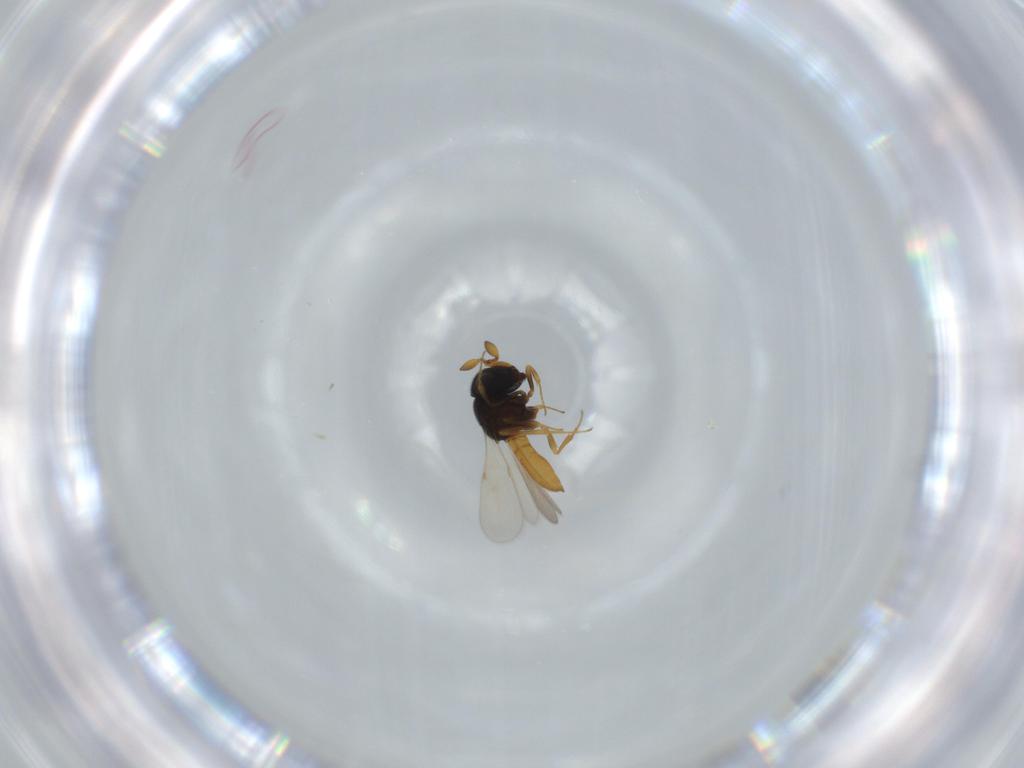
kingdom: Animalia
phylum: Arthropoda
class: Insecta
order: Hymenoptera
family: Scelionidae
